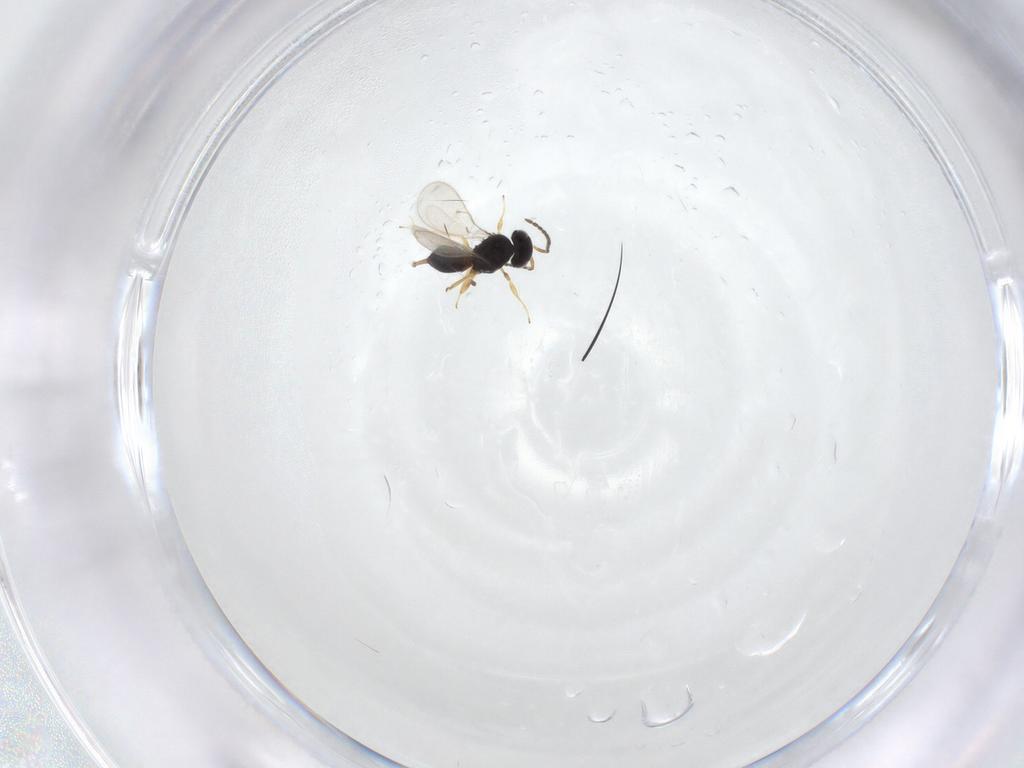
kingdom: Animalia
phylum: Arthropoda
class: Insecta
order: Hymenoptera
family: Scelionidae
